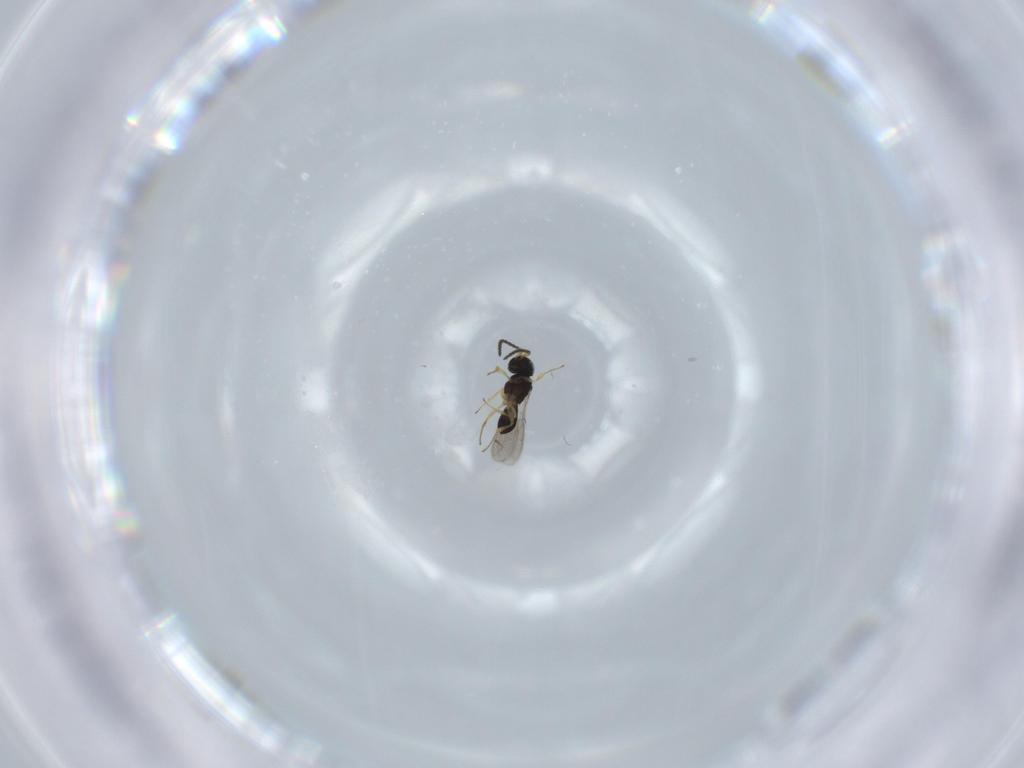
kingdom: Animalia
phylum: Arthropoda
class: Insecta
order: Hymenoptera
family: Scelionidae
